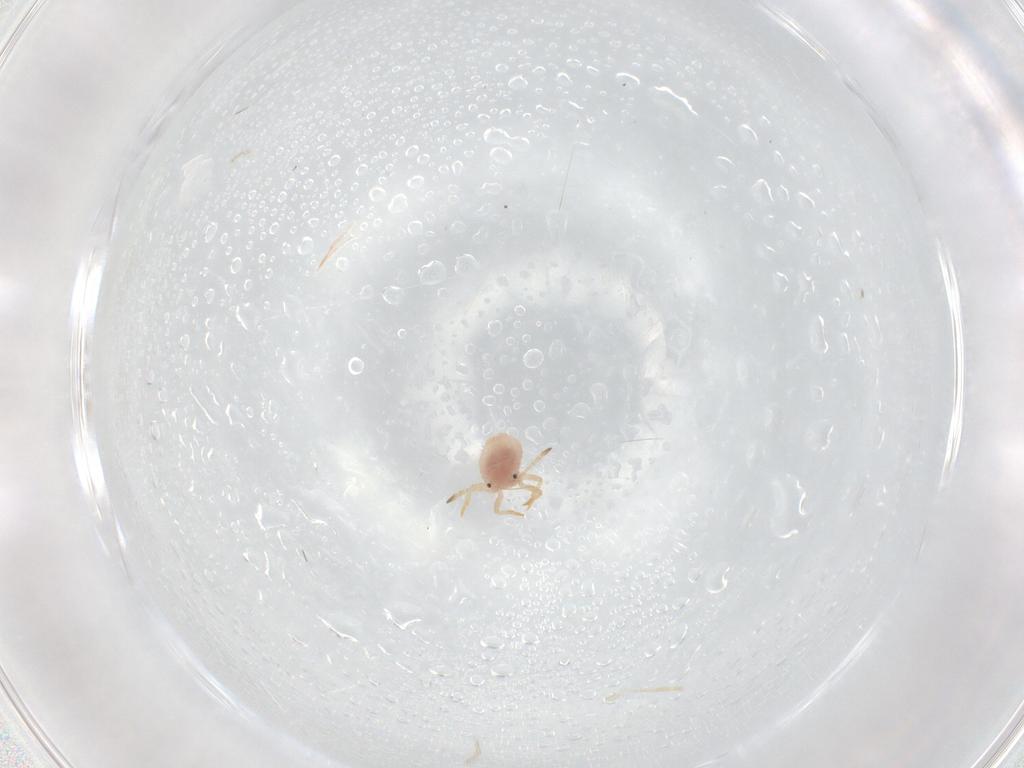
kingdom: Animalia
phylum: Arthropoda
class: Insecta
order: Hemiptera
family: Coccoidea_incertae_sedis
